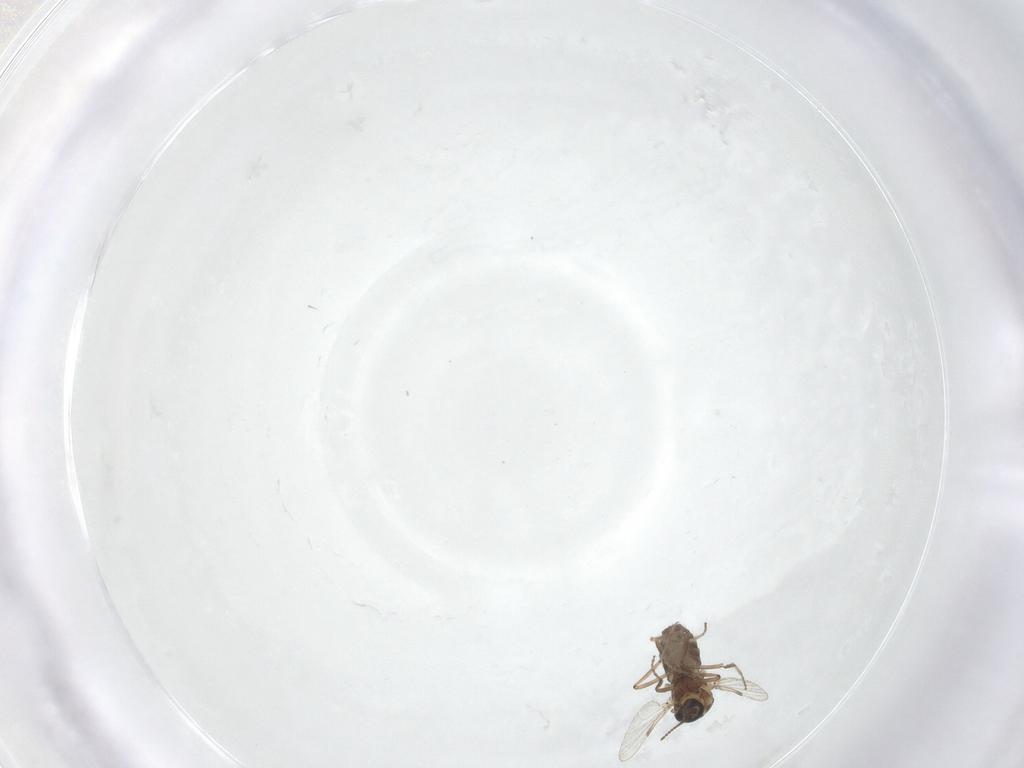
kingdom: Animalia
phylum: Arthropoda
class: Insecta
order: Diptera
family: Ceratopogonidae
